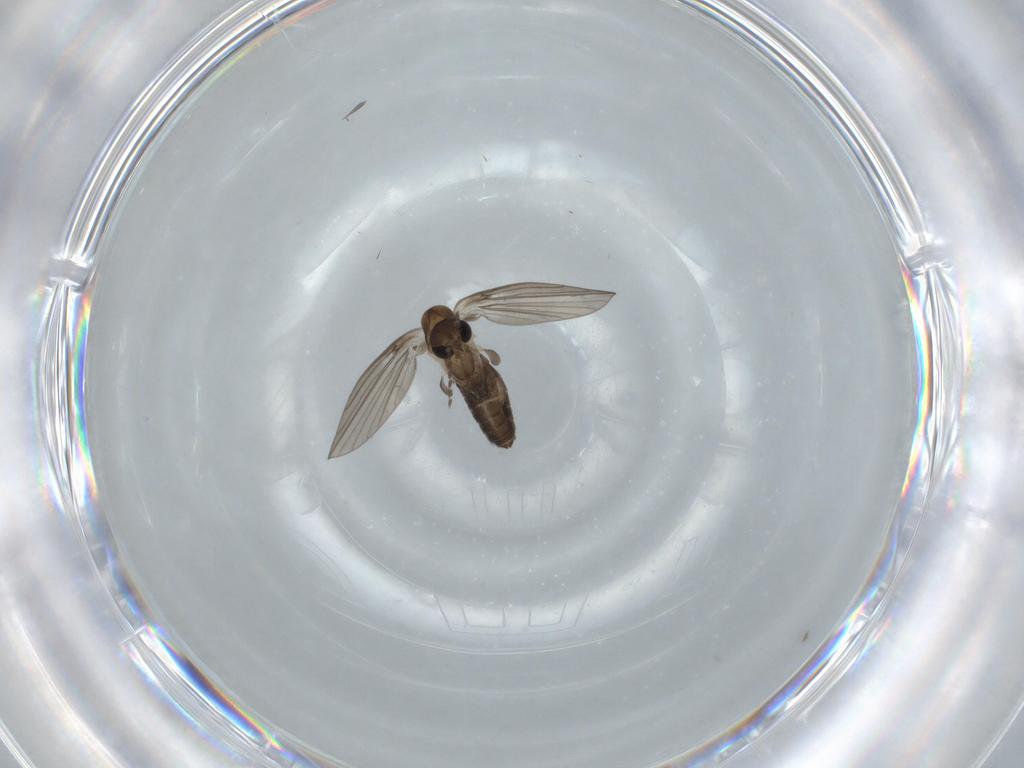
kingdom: Animalia
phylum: Arthropoda
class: Insecta
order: Diptera
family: Psychodidae
